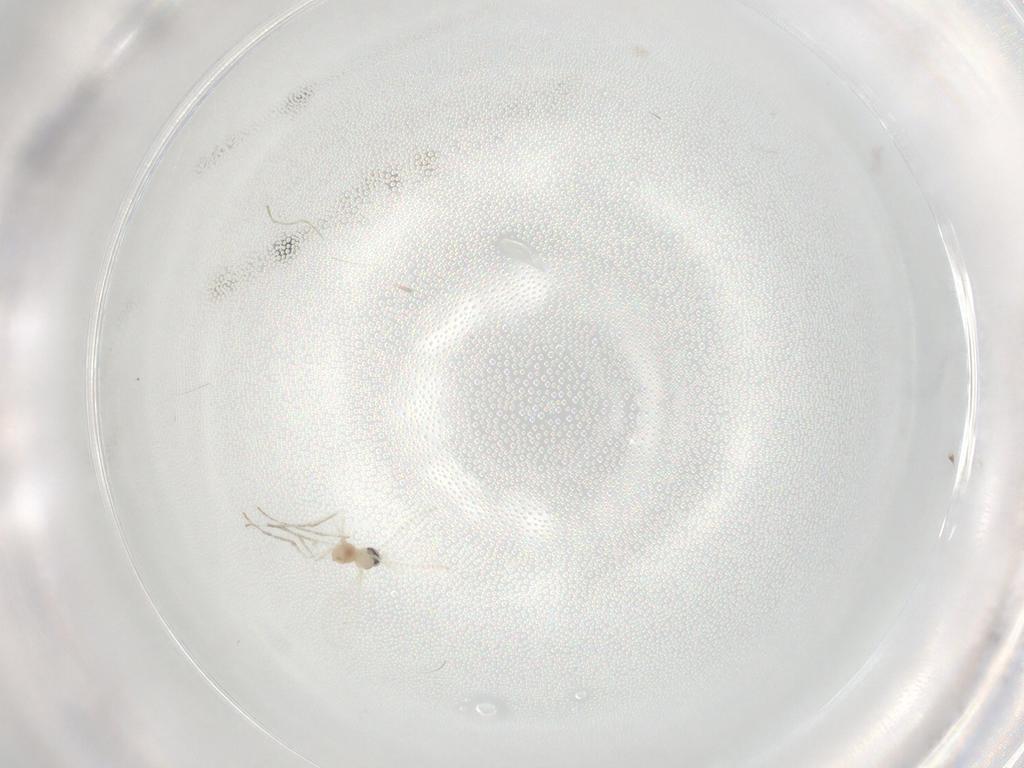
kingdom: Animalia
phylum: Arthropoda
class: Insecta
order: Diptera
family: Cecidomyiidae
